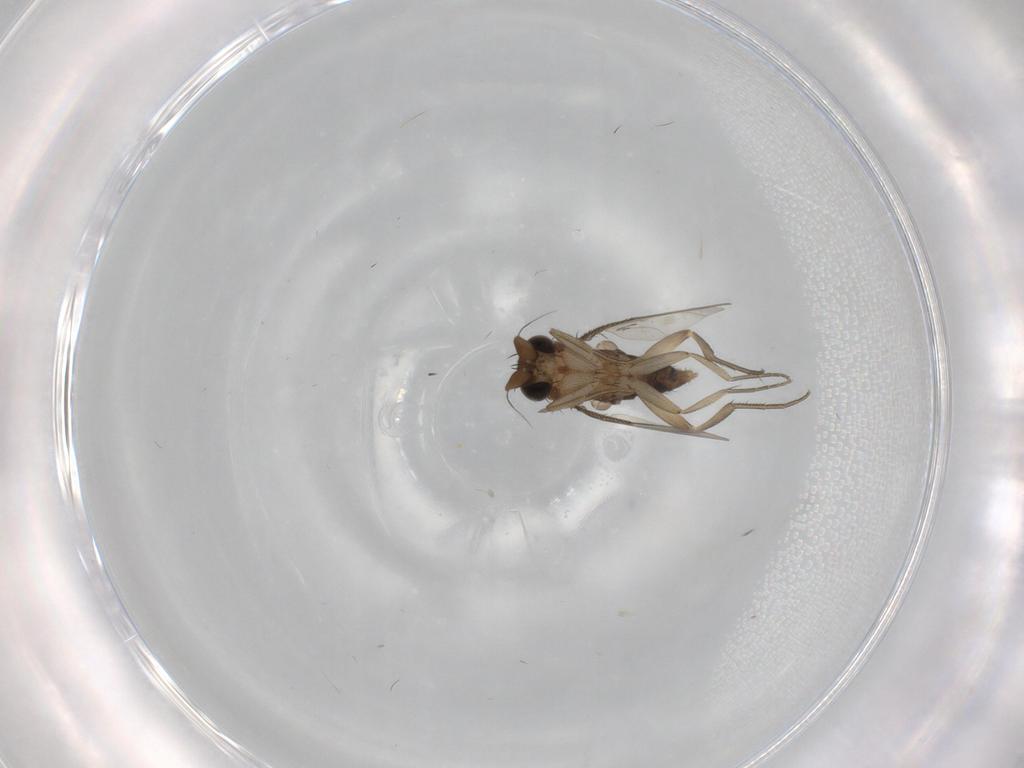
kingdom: Animalia
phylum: Arthropoda
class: Insecta
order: Diptera
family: Phoridae
